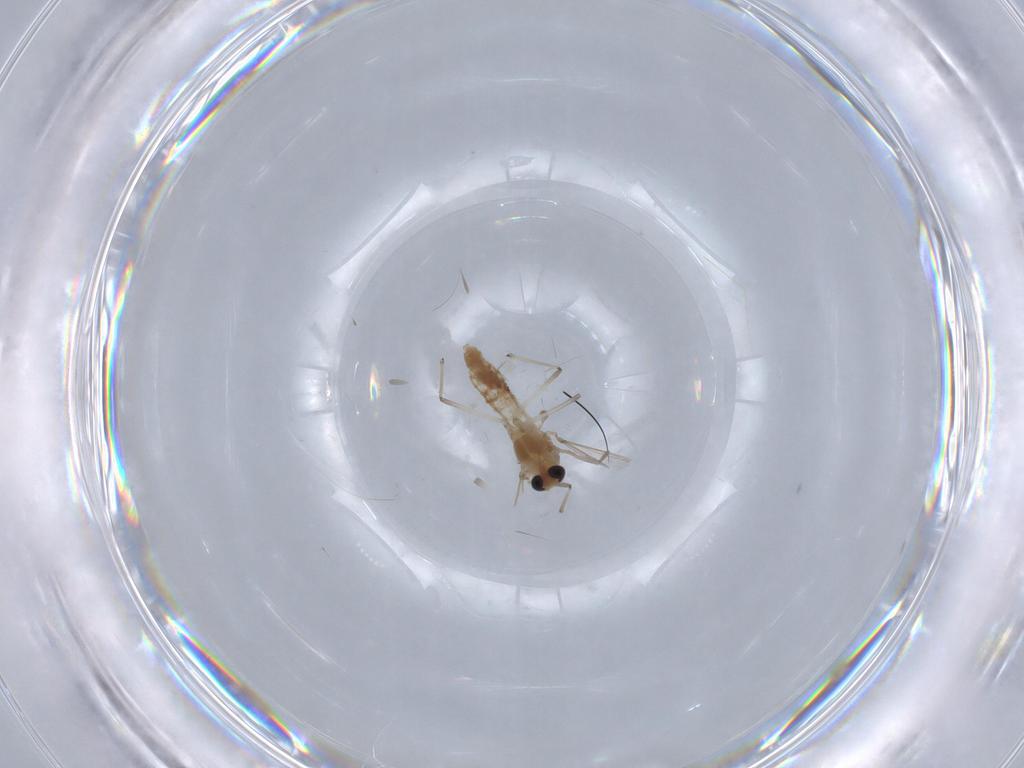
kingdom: Animalia
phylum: Arthropoda
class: Insecta
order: Diptera
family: Chironomidae
